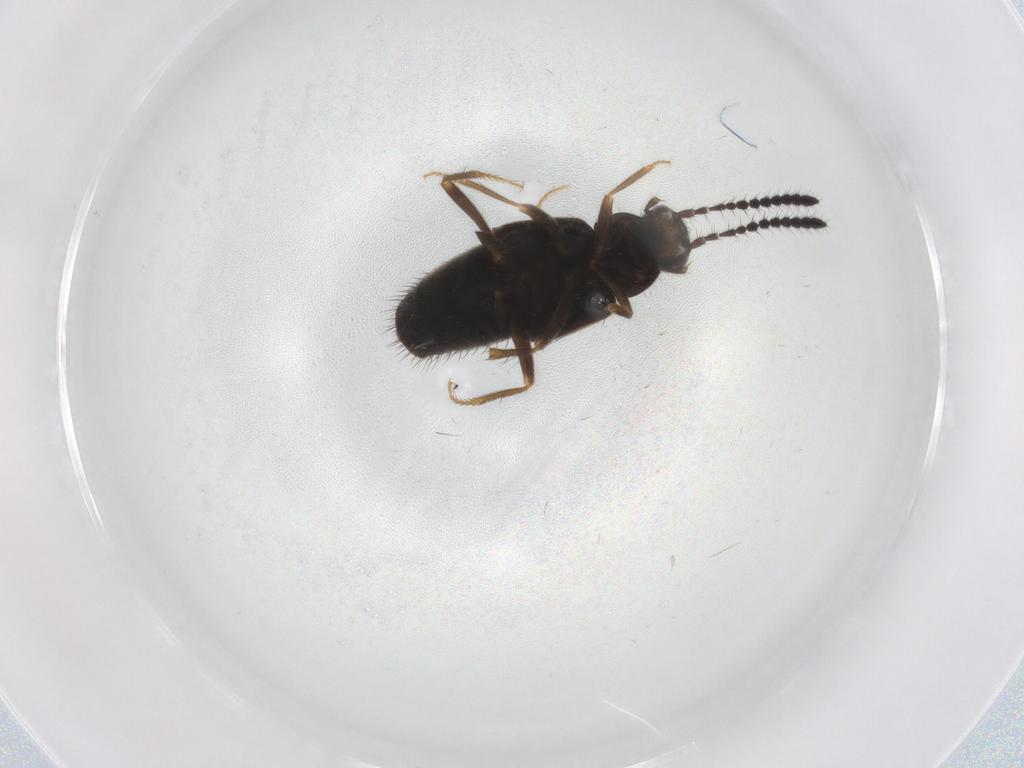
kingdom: Animalia
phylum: Arthropoda
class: Insecta
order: Coleoptera
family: Staphylinidae
